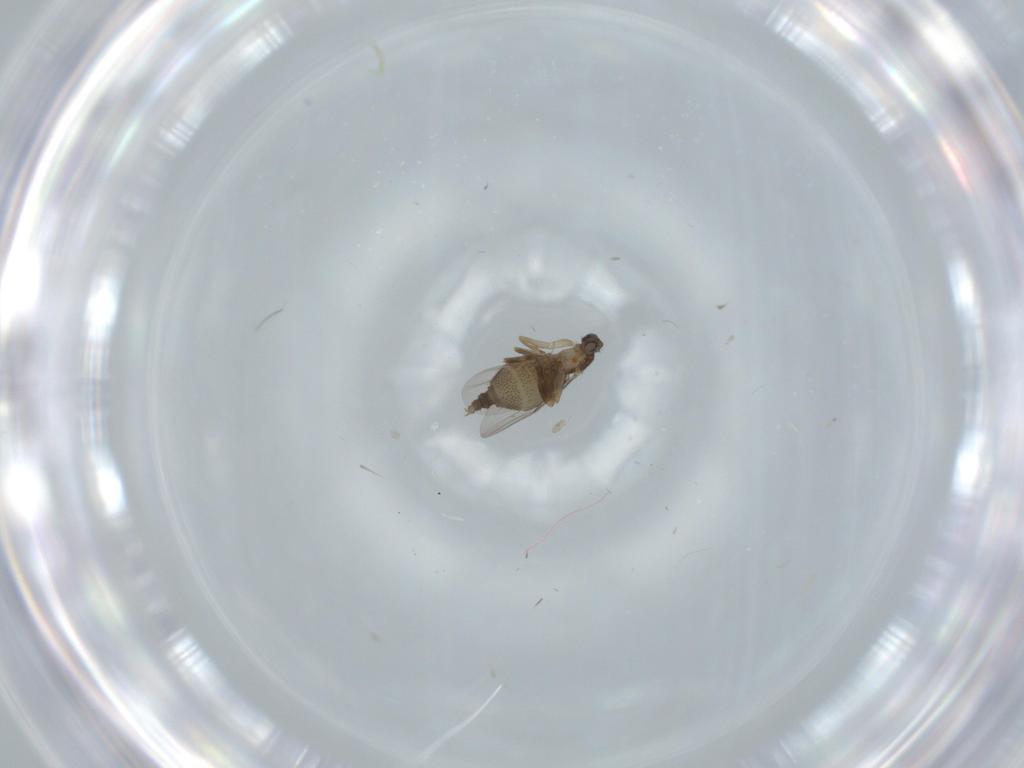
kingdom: Animalia
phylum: Arthropoda
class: Insecta
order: Diptera
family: Phoridae
